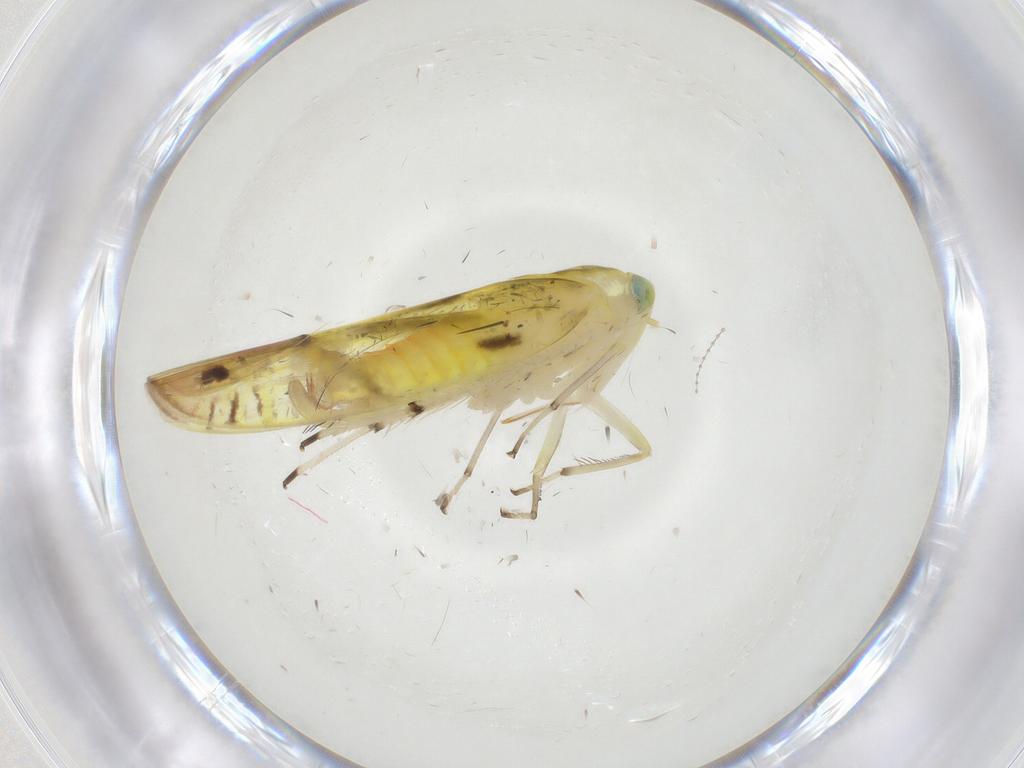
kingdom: Animalia
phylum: Arthropoda
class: Insecta
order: Hemiptera
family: Cicadellidae
